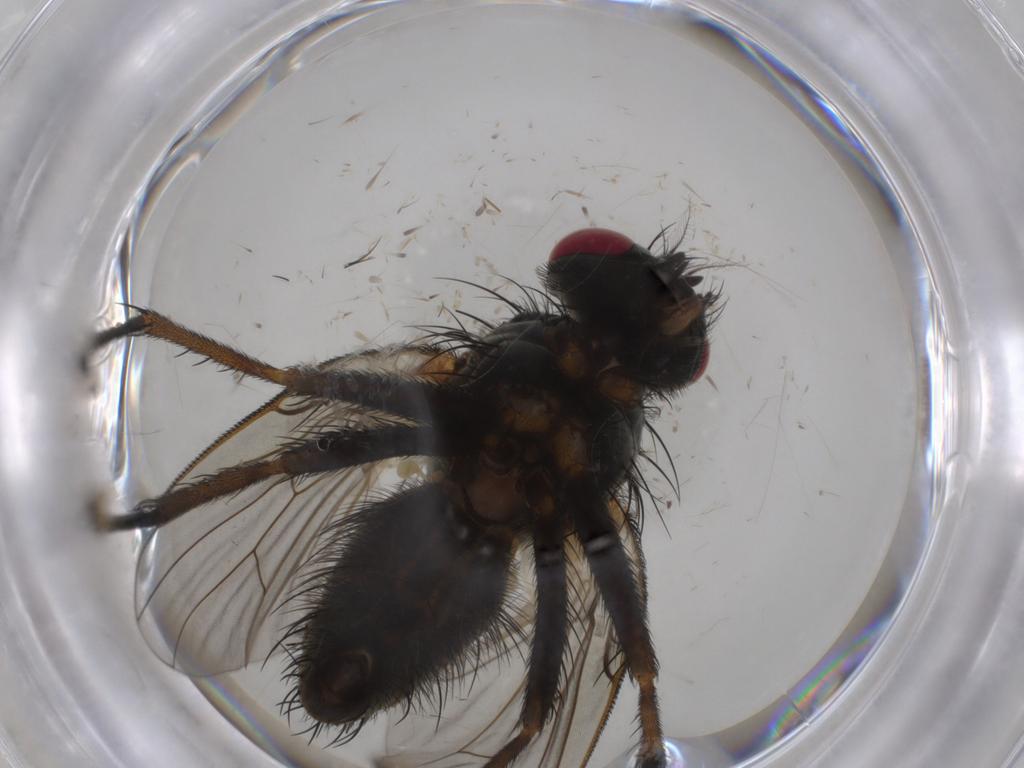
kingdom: Animalia
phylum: Arthropoda
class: Insecta
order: Diptera
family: Muscidae
